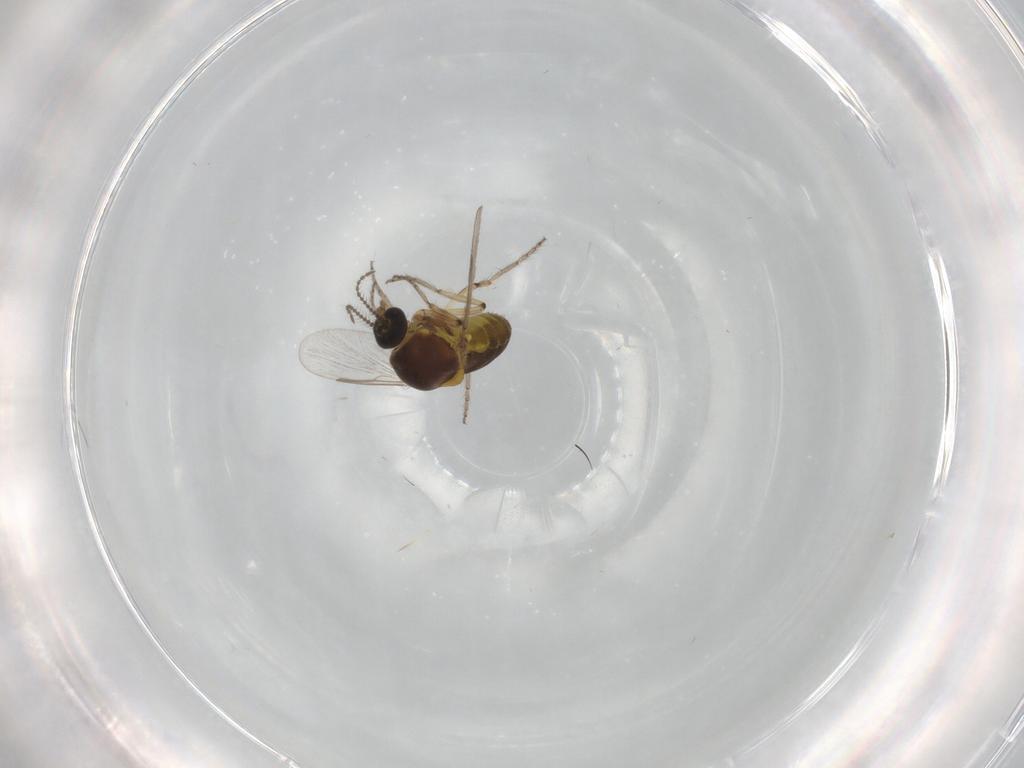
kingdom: Animalia
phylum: Arthropoda
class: Insecta
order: Diptera
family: Ceratopogonidae
